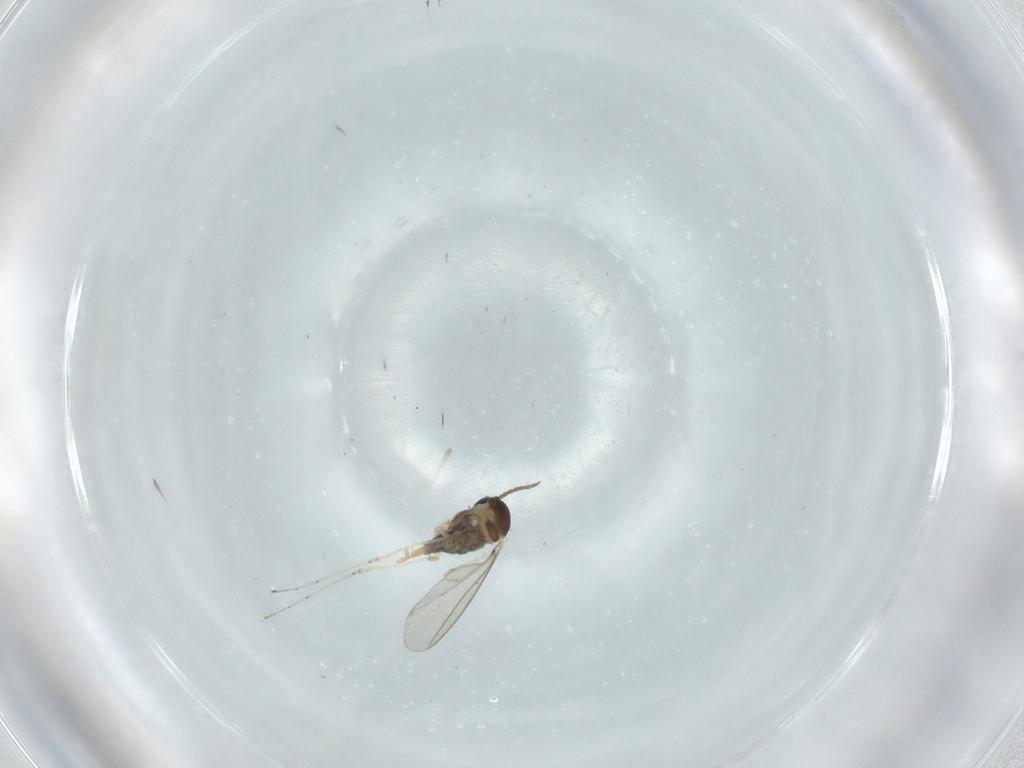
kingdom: Animalia
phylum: Arthropoda
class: Insecta
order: Diptera
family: Cecidomyiidae
